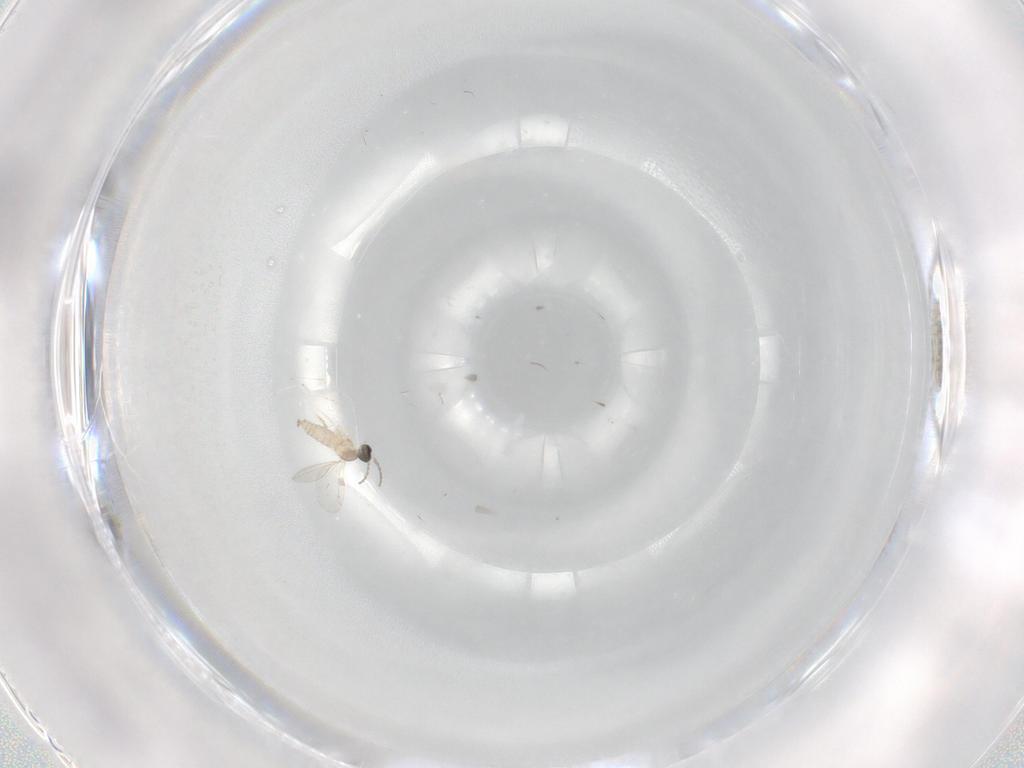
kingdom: Animalia
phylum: Arthropoda
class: Insecta
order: Diptera
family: Cecidomyiidae
